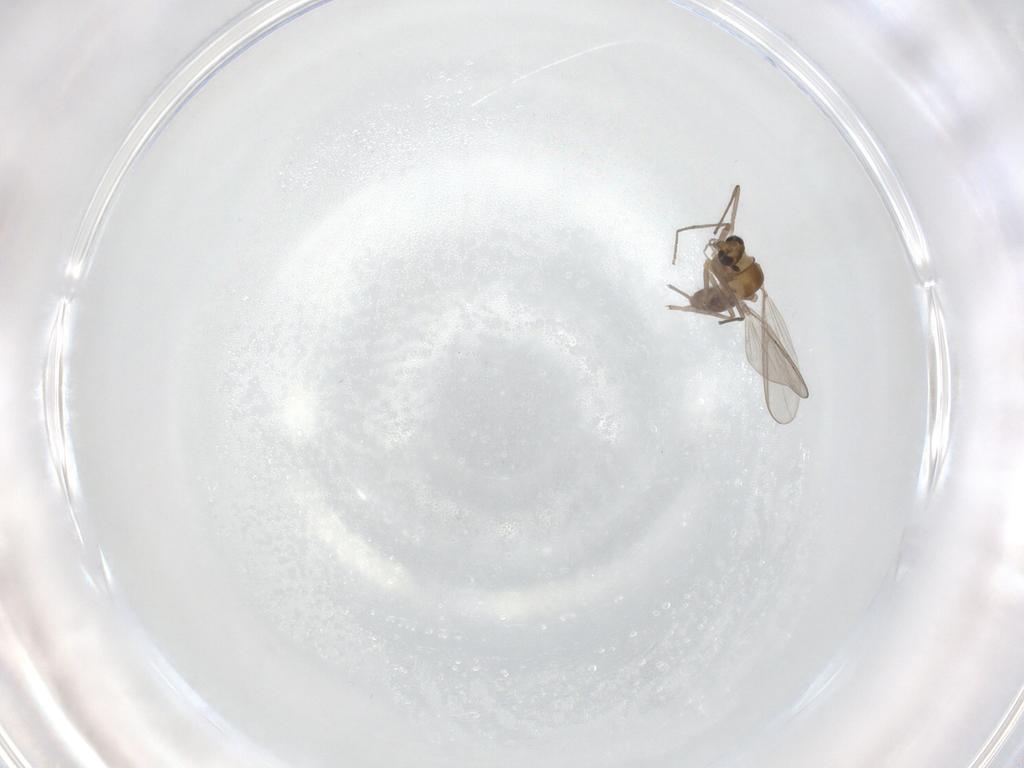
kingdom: Animalia
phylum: Arthropoda
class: Insecta
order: Diptera
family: Chironomidae
